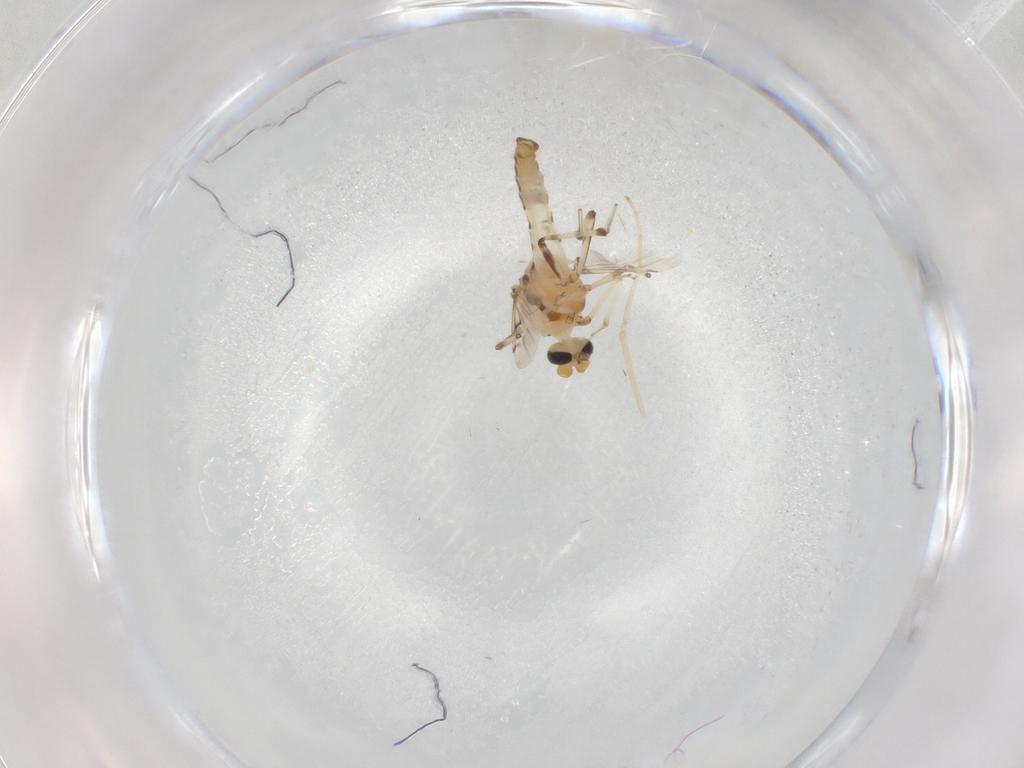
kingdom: Animalia
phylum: Arthropoda
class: Insecta
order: Diptera
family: Ceratopogonidae
